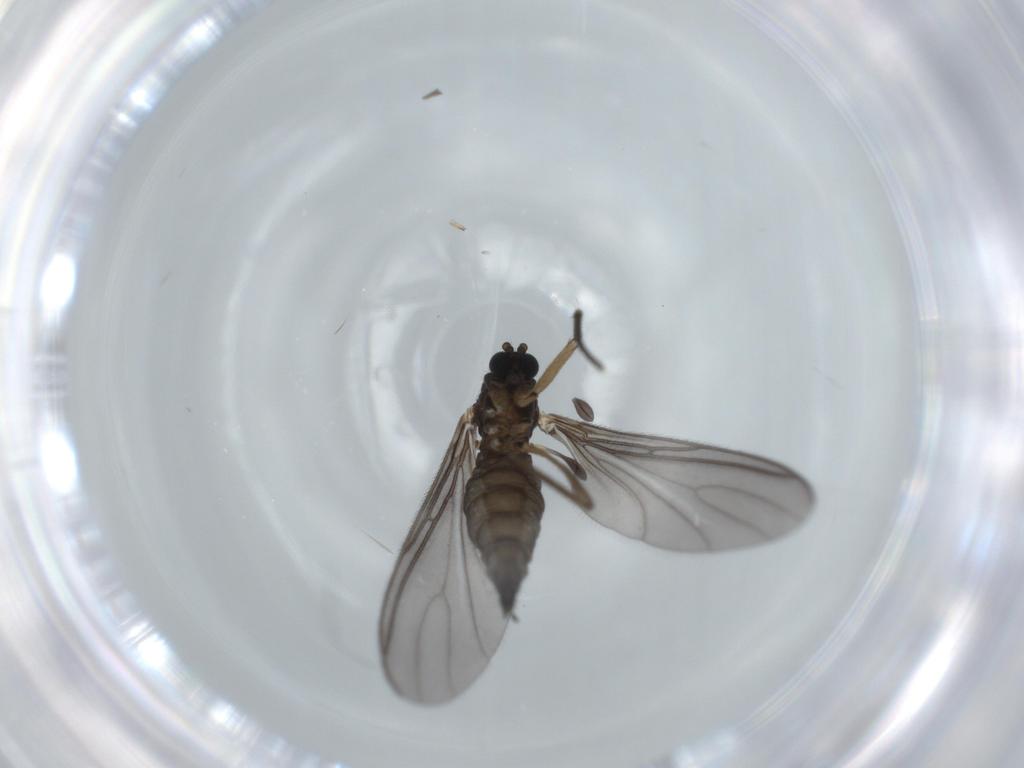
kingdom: Animalia
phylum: Arthropoda
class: Insecta
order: Diptera
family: Sciaridae
